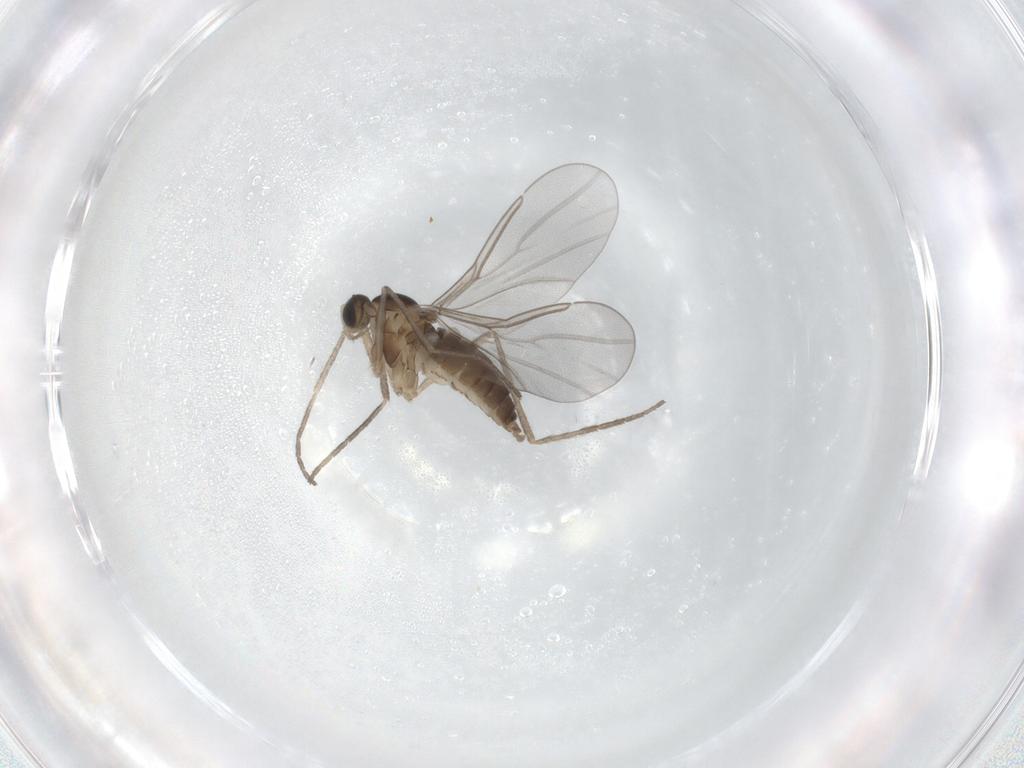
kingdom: Animalia
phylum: Arthropoda
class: Insecta
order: Diptera
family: Cecidomyiidae
